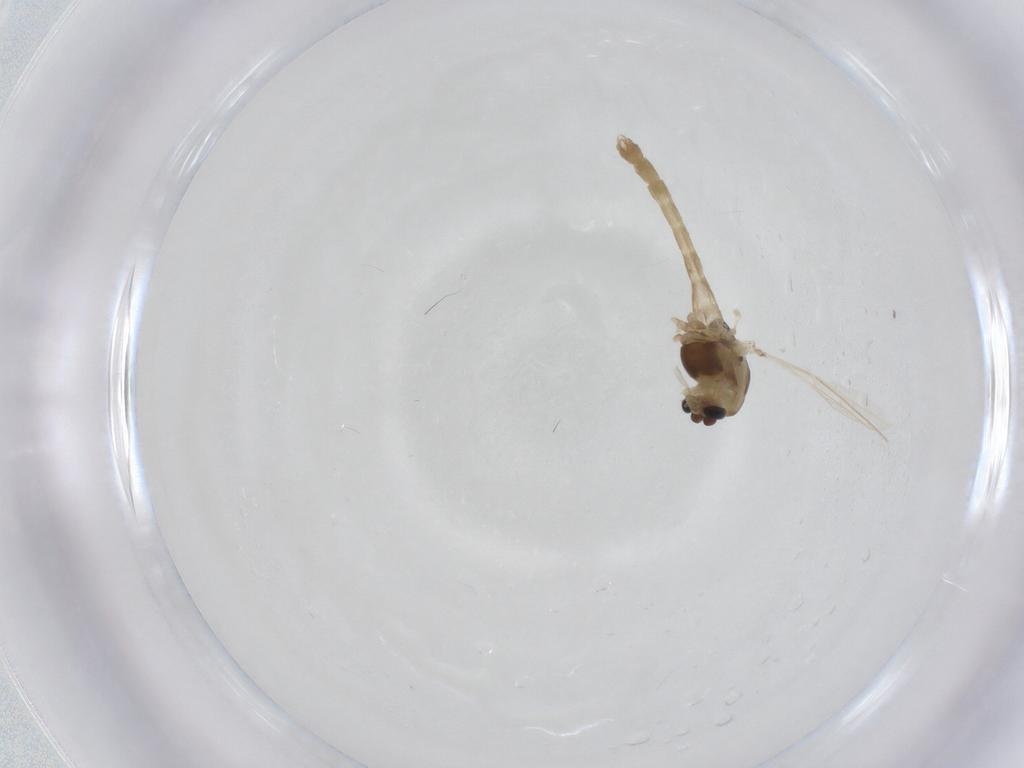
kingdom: Animalia
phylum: Arthropoda
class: Insecta
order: Diptera
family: Chironomidae
